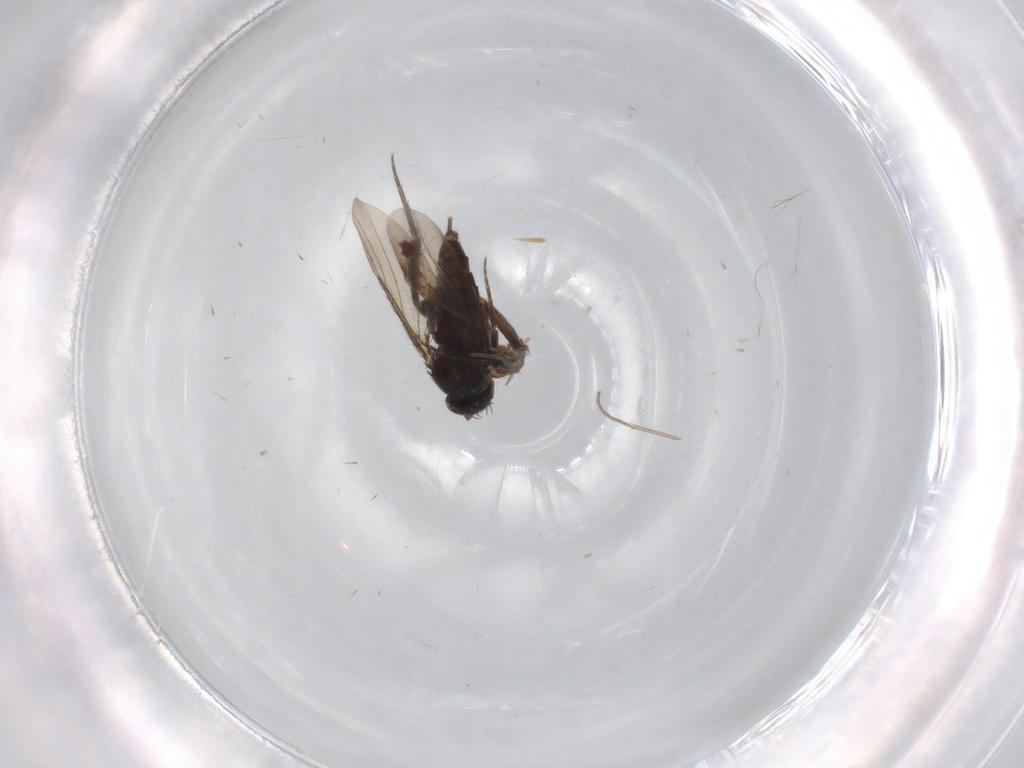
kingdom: Animalia
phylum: Arthropoda
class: Insecta
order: Diptera
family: Sciaridae
